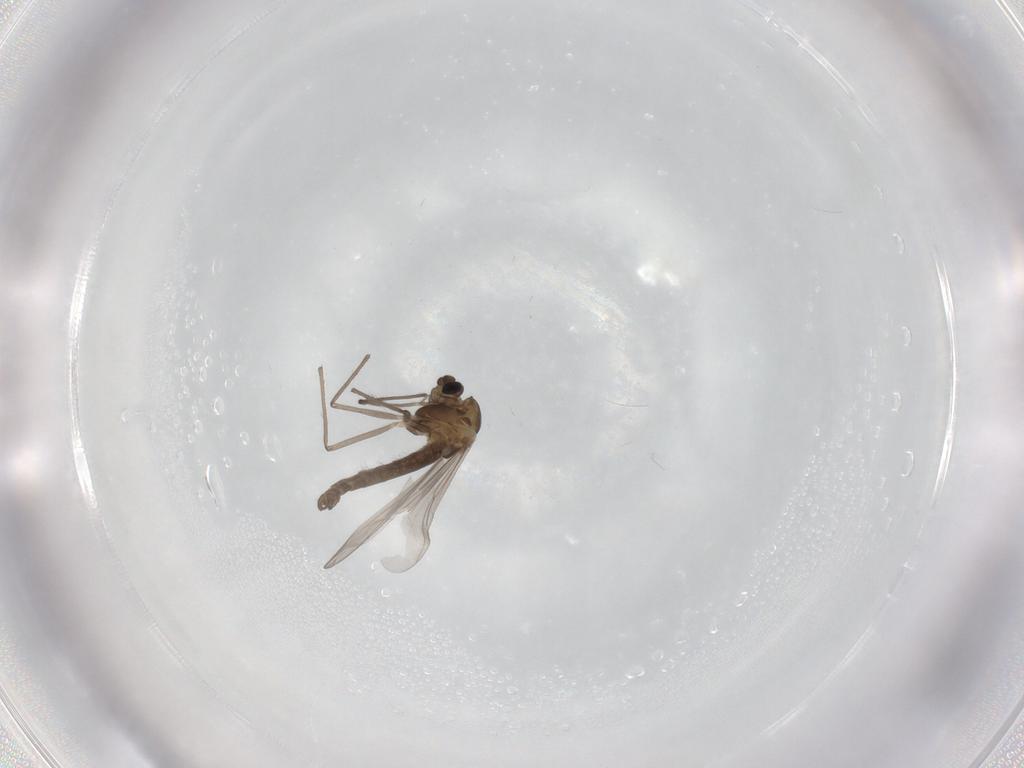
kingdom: Animalia
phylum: Arthropoda
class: Insecta
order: Diptera
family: Chironomidae
